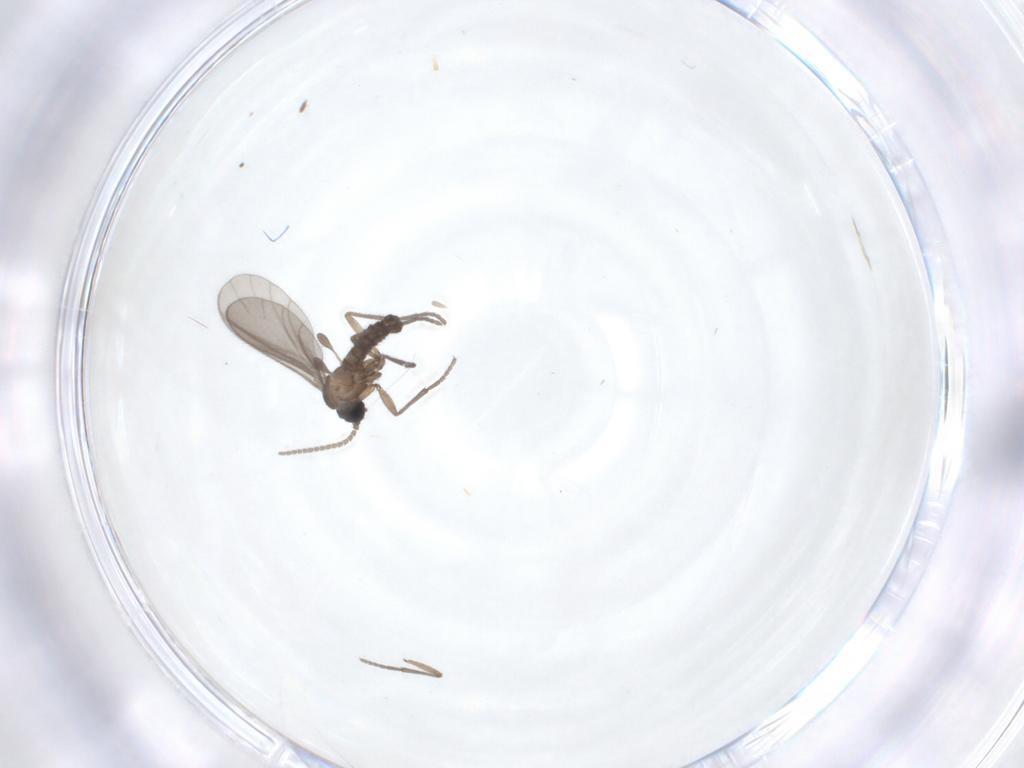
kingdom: Animalia
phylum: Arthropoda
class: Insecta
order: Diptera
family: Sciaridae
